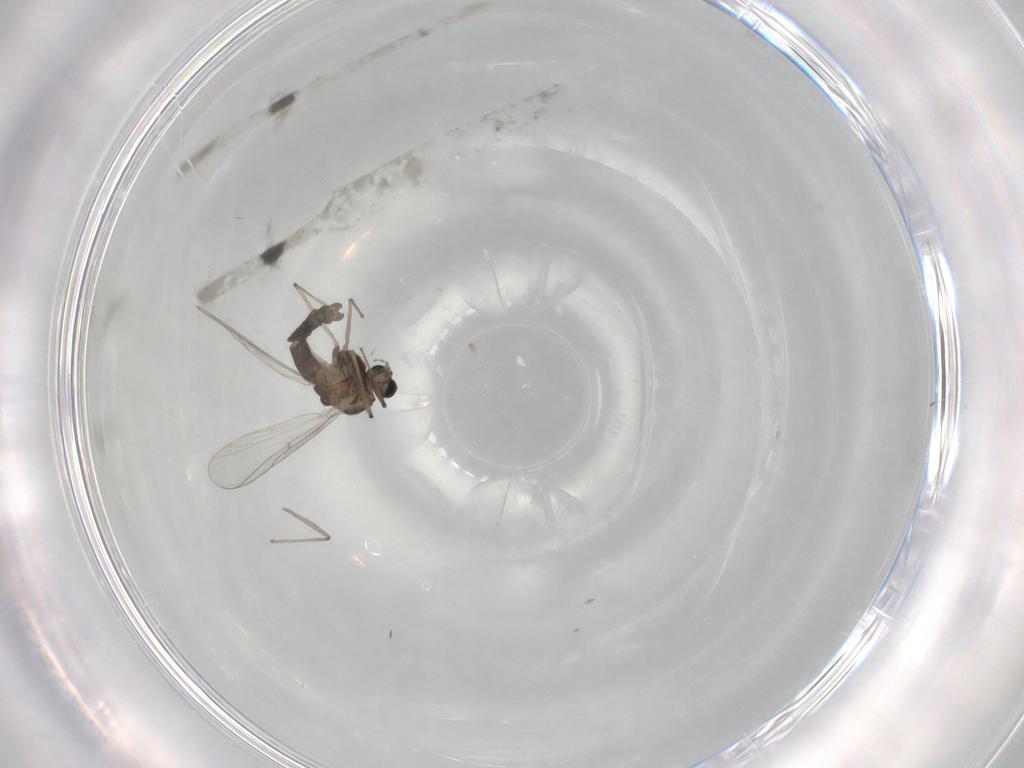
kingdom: Animalia
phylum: Arthropoda
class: Insecta
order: Diptera
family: Chironomidae
